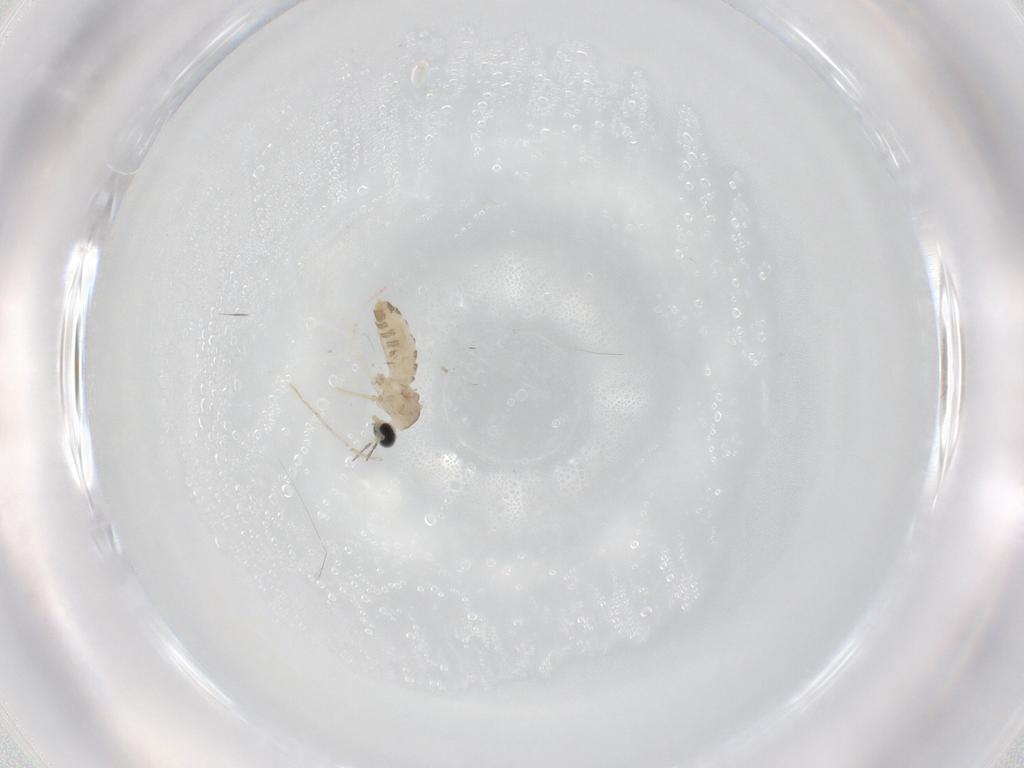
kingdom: Animalia
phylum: Arthropoda
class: Insecta
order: Diptera
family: Cecidomyiidae
